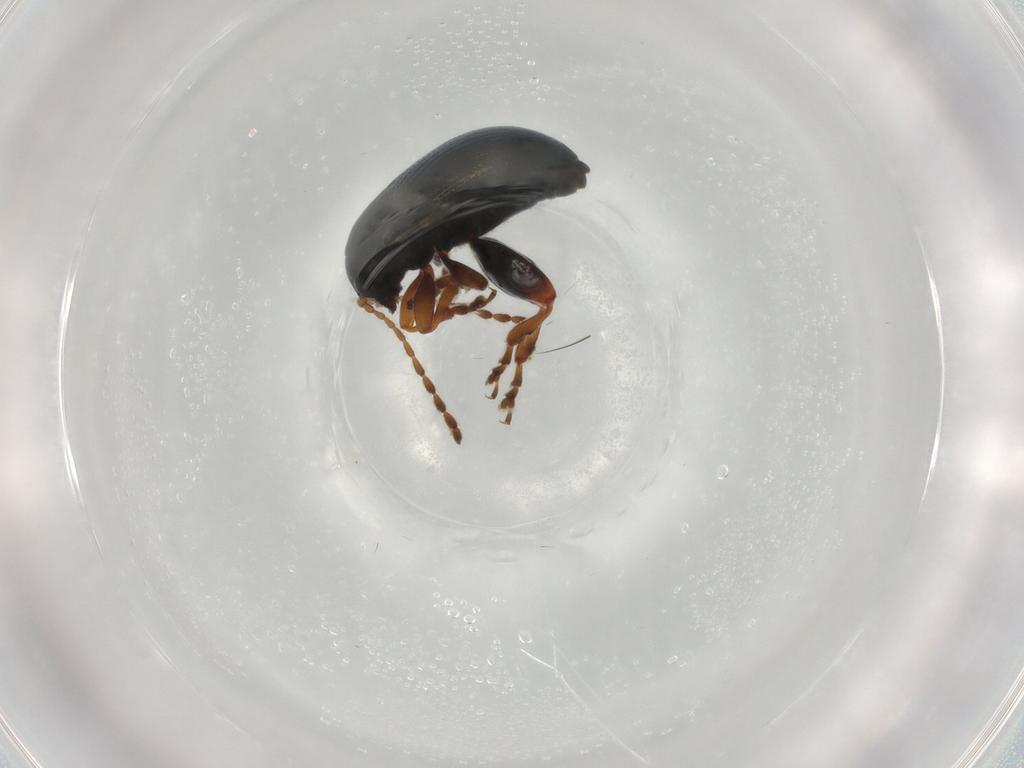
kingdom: Animalia
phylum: Arthropoda
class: Insecta
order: Coleoptera
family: Chrysomelidae
